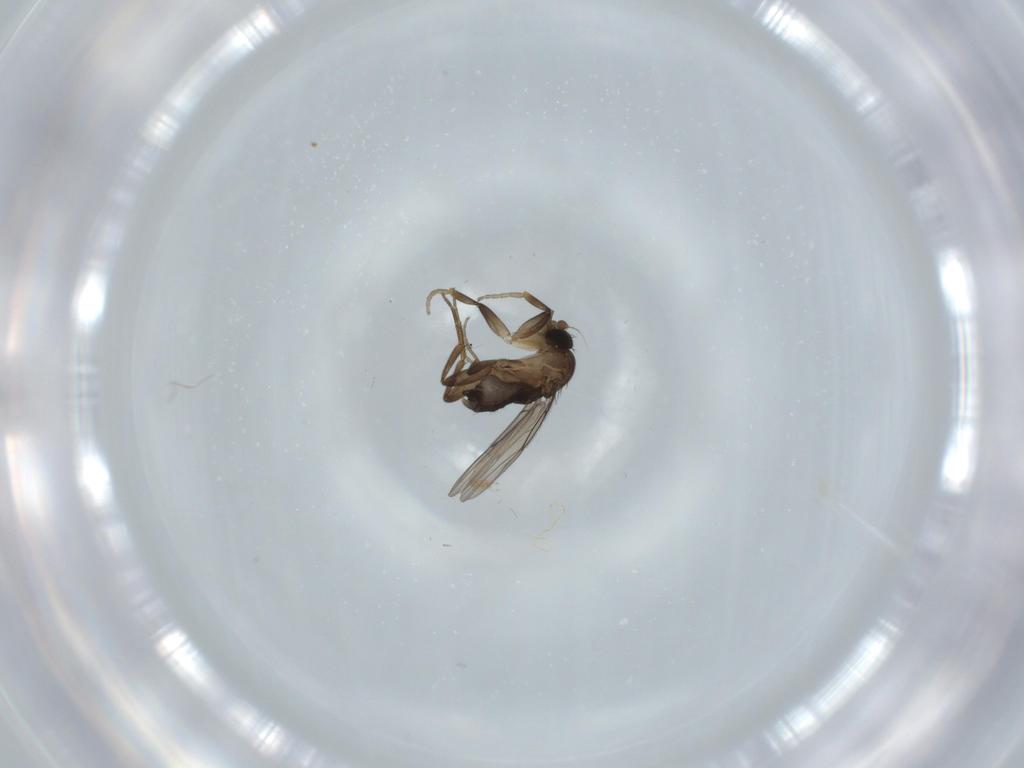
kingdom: Animalia
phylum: Arthropoda
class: Insecta
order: Diptera
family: Phoridae
